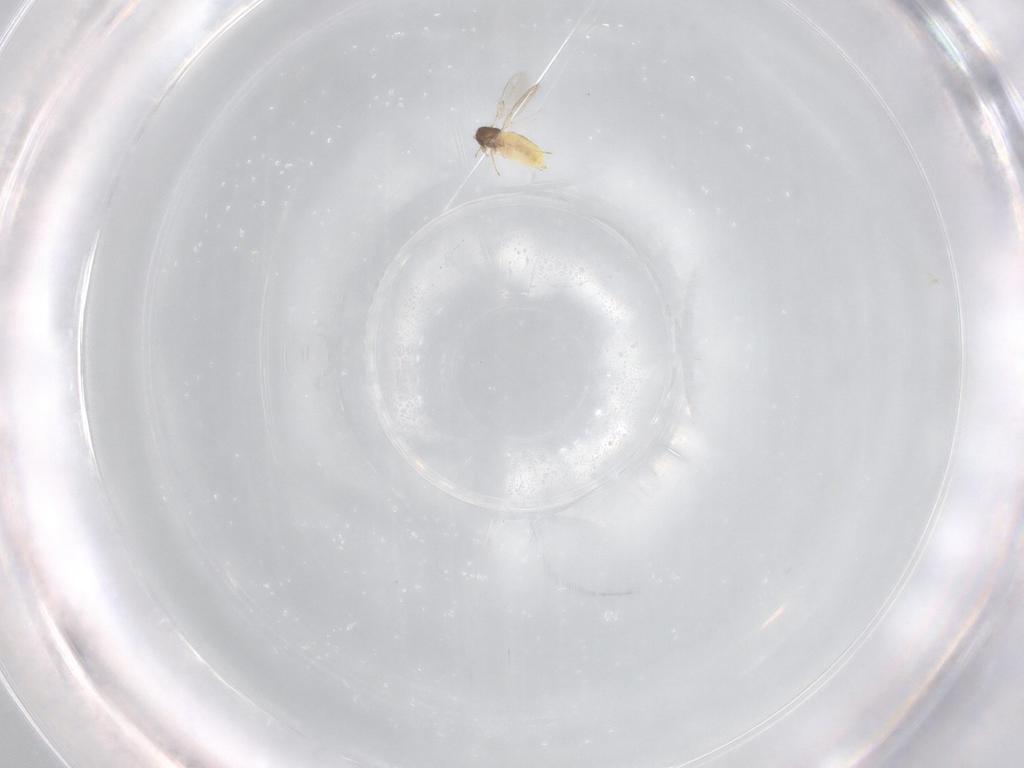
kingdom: Animalia
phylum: Arthropoda
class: Insecta
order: Hymenoptera
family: Trichogrammatidae
